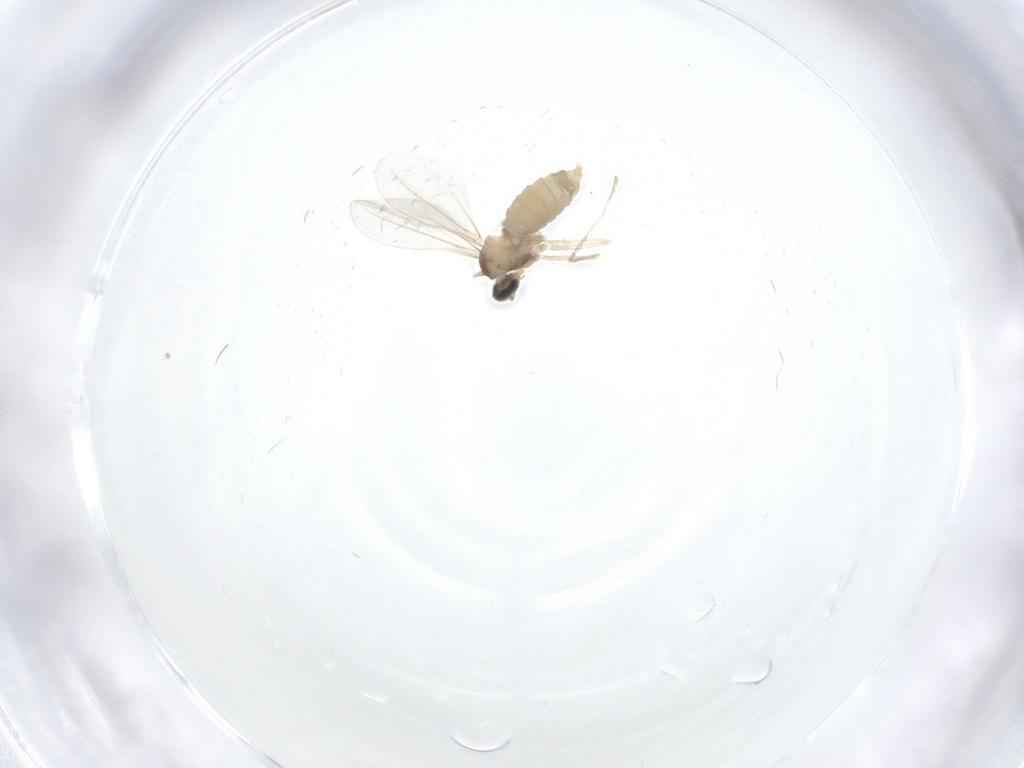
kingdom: Animalia
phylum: Arthropoda
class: Insecta
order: Diptera
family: Cecidomyiidae
